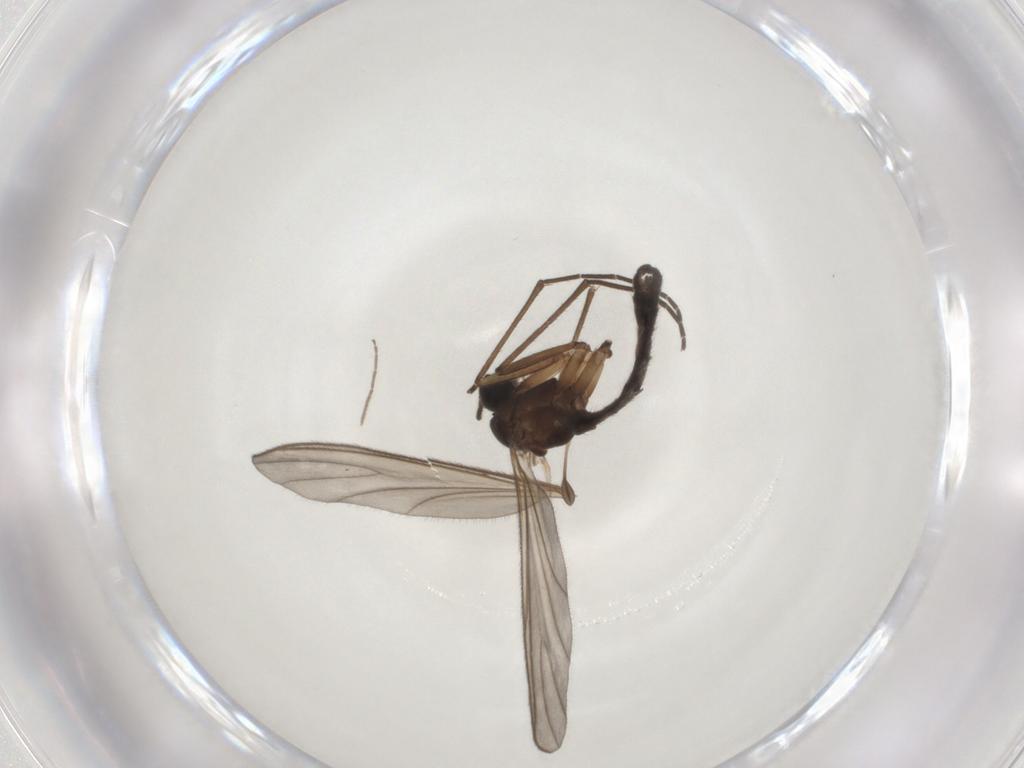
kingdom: Animalia
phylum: Arthropoda
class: Insecta
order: Diptera
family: Sciaridae
